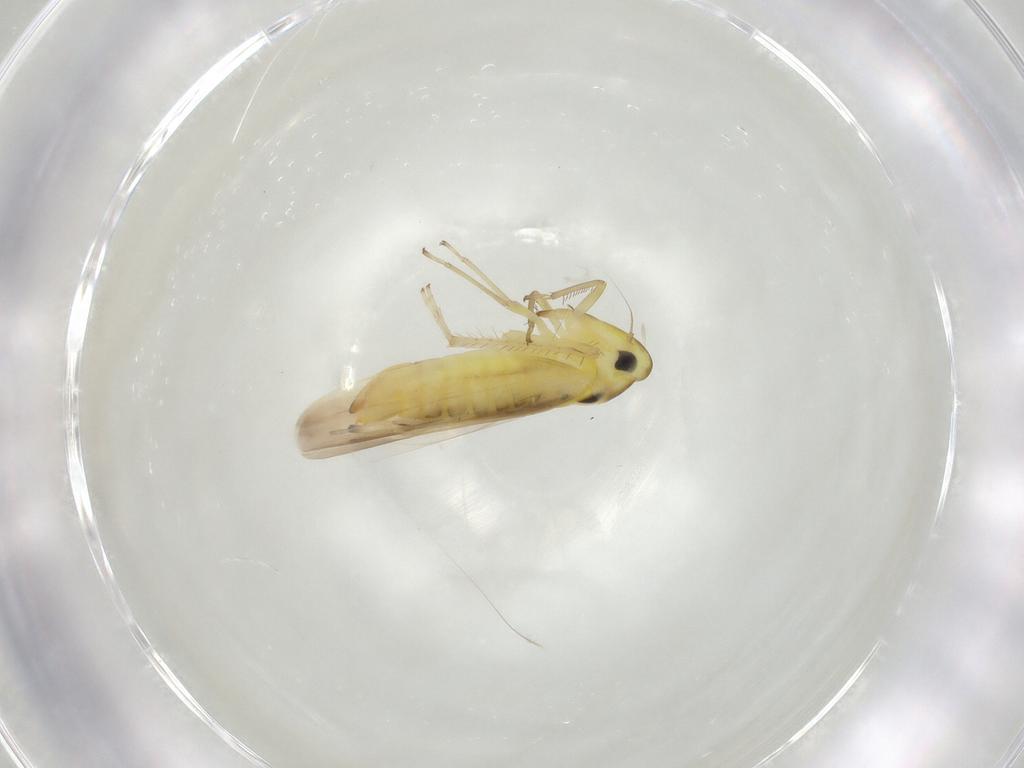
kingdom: Animalia
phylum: Arthropoda
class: Insecta
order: Hemiptera
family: Cicadellidae
